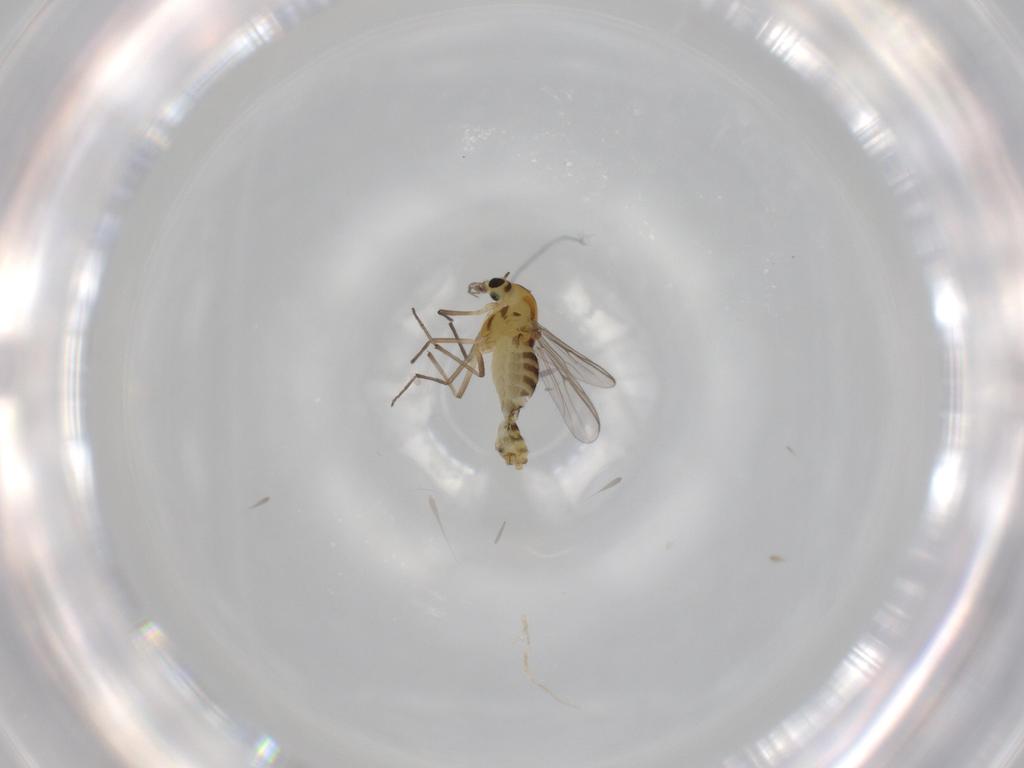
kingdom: Animalia
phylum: Arthropoda
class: Insecta
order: Diptera
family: Chironomidae
